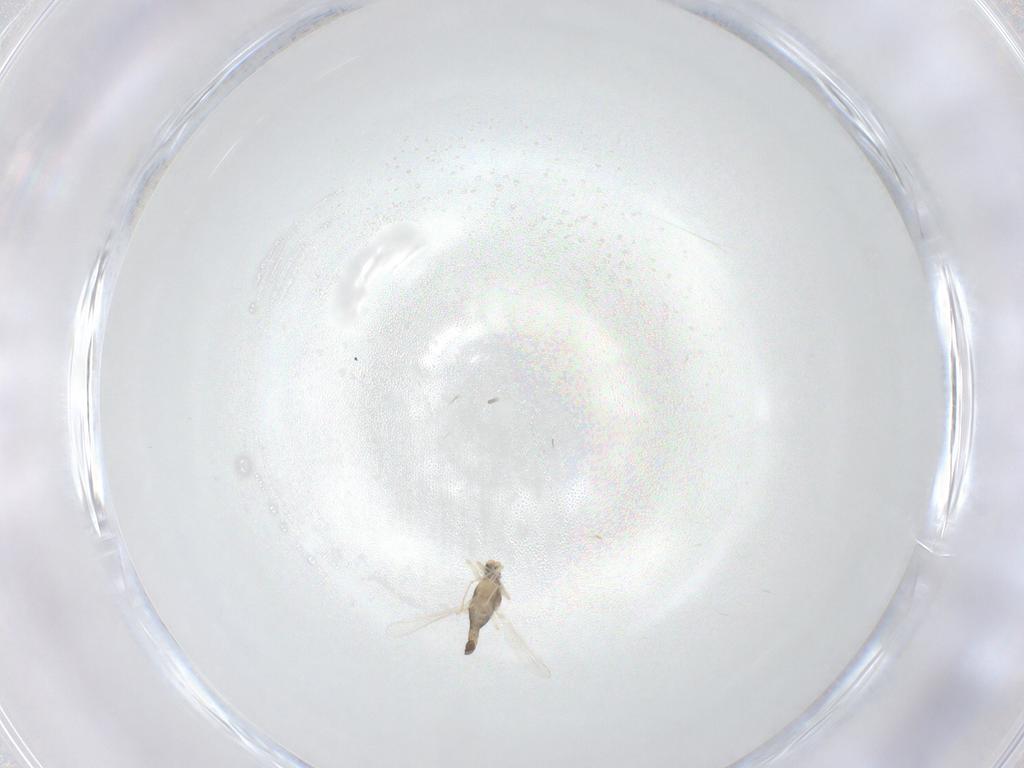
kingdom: Animalia
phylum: Arthropoda
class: Insecta
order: Diptera
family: Chironomidae
